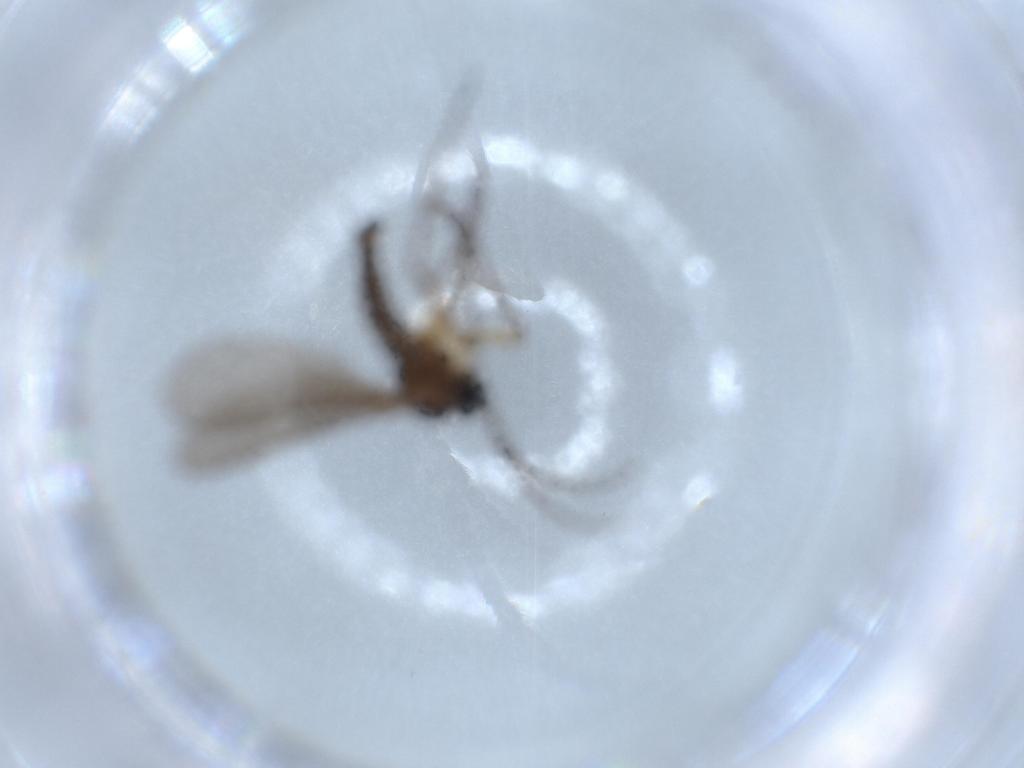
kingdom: Animalia
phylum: Arthropoda
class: Insecta
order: Diptera
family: Sciaridae
